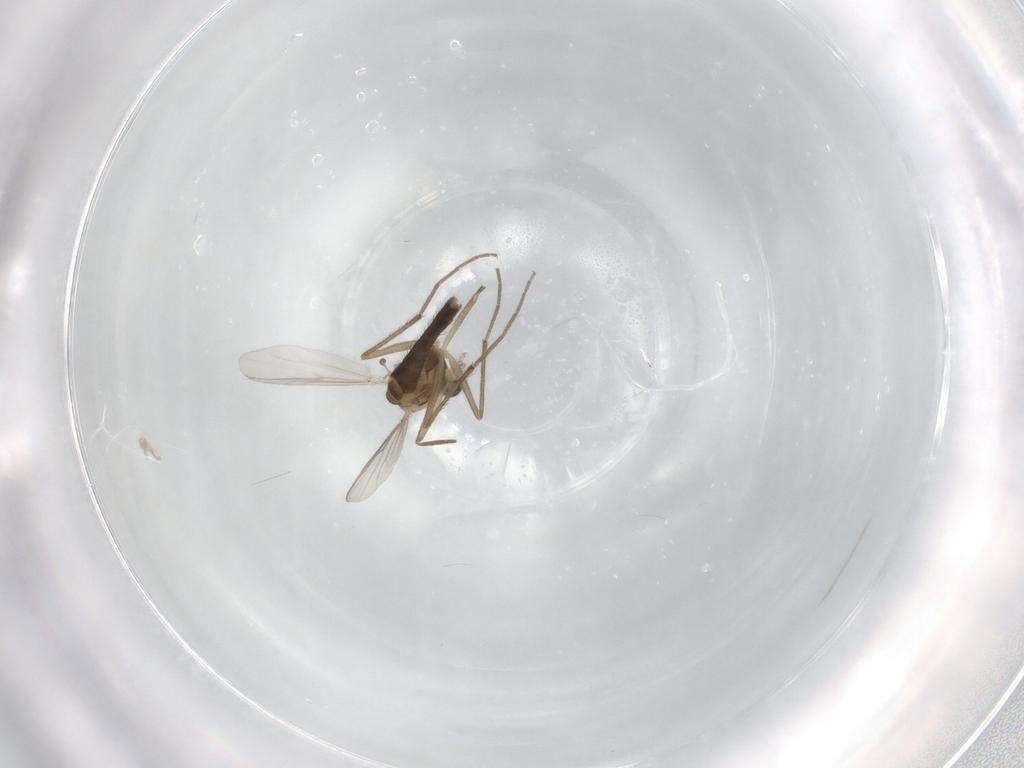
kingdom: Animalia
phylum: Arthropoda
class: Insecta
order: Diptera
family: Chironomidae
